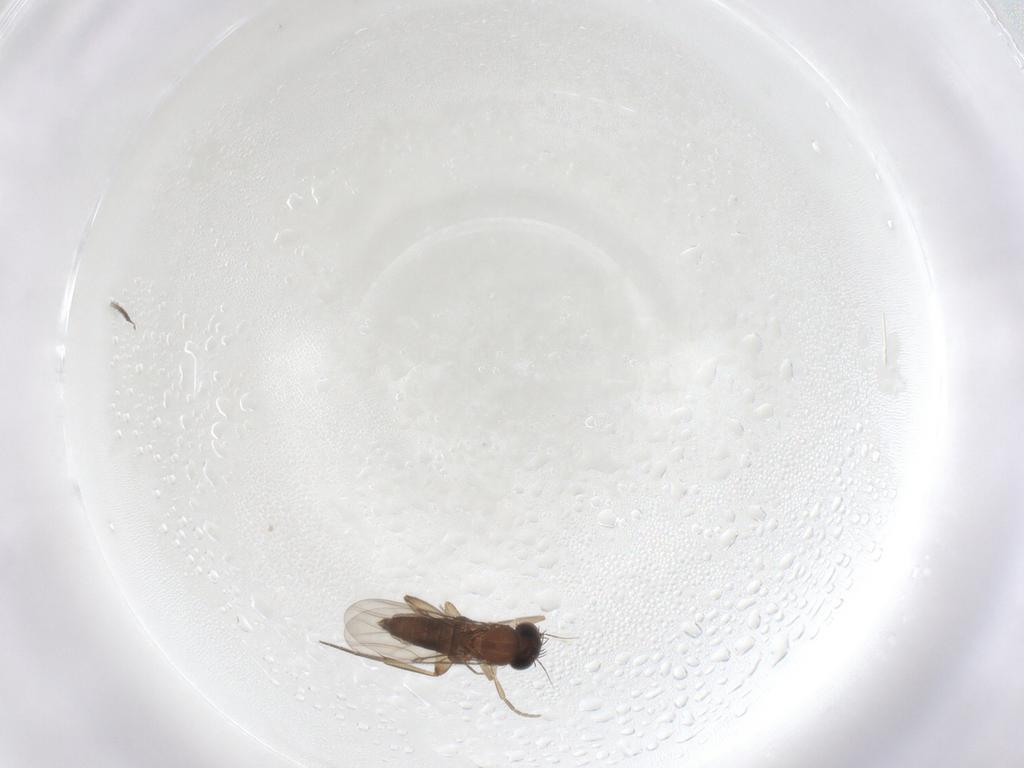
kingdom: Animalia
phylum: Arthropoda
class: Insecta
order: Diptera
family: Phoridae
